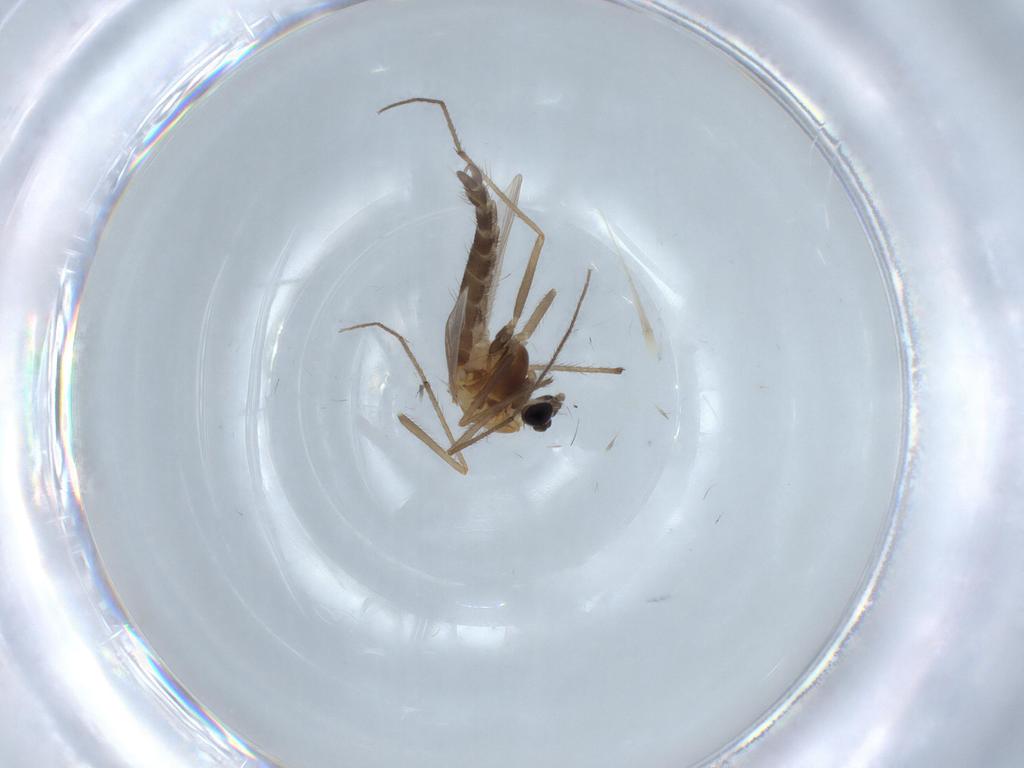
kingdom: Animalia
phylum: Arthropoda
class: Insecta
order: Diptera
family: Chironomidae
